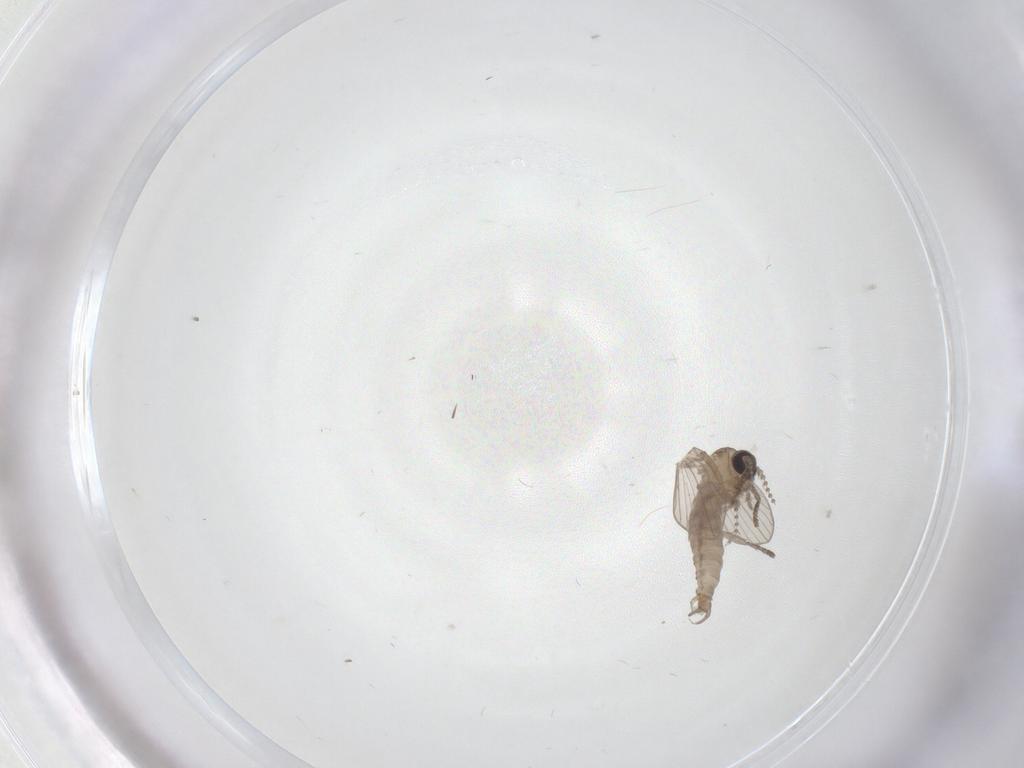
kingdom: Animalia
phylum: Arthropoda
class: Insecta
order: Diptera
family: Psychodidae
